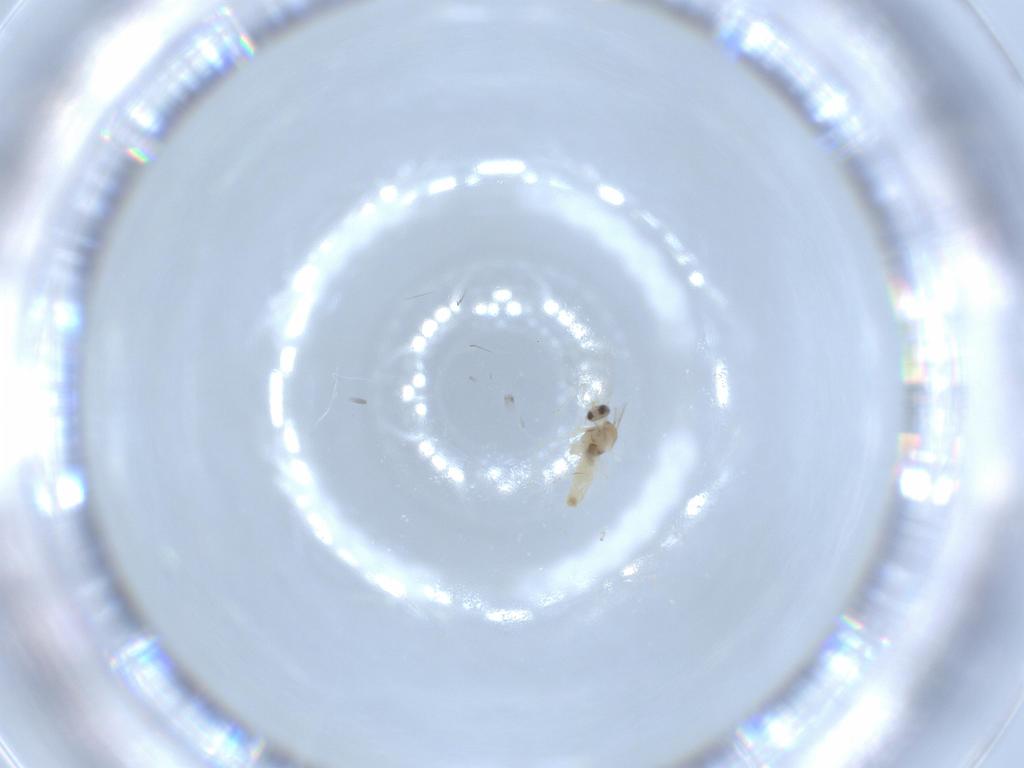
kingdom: Animalia
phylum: Arthropoda
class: Insecta
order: Diptera
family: Cecidomyiidae
